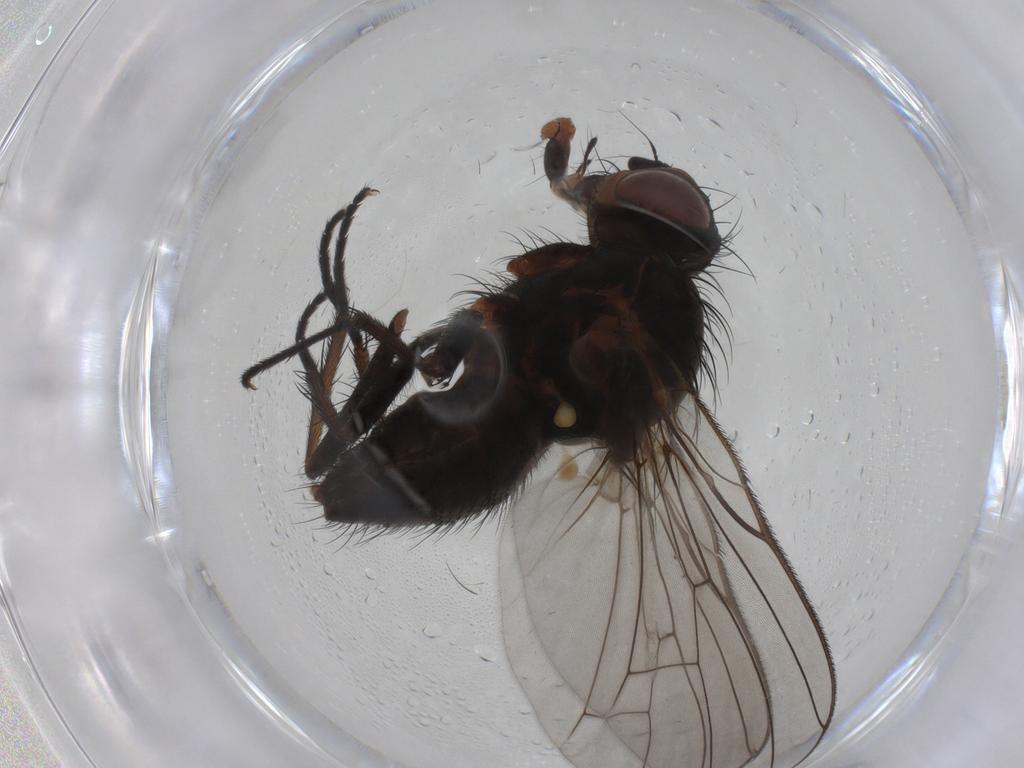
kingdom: Animalia
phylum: Arthropoda
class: Insecta
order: Diptera
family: Anthomyiidae
